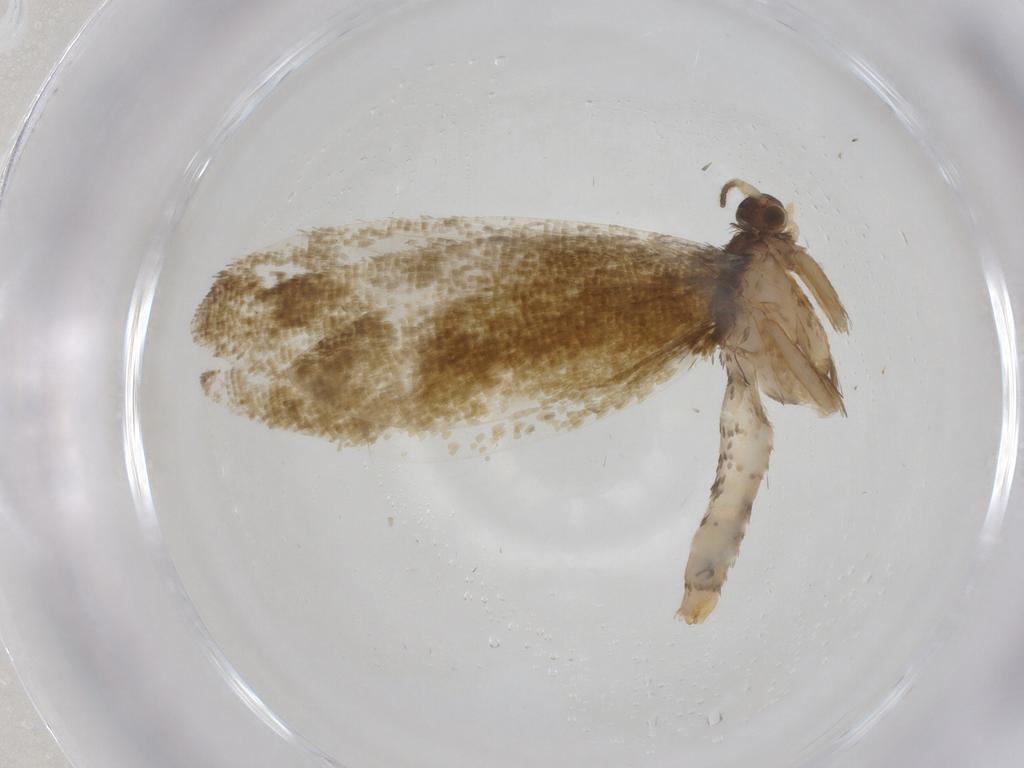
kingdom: Animalia
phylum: Arthropoda
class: Insecta
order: Lepidoptera
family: Tineidae
